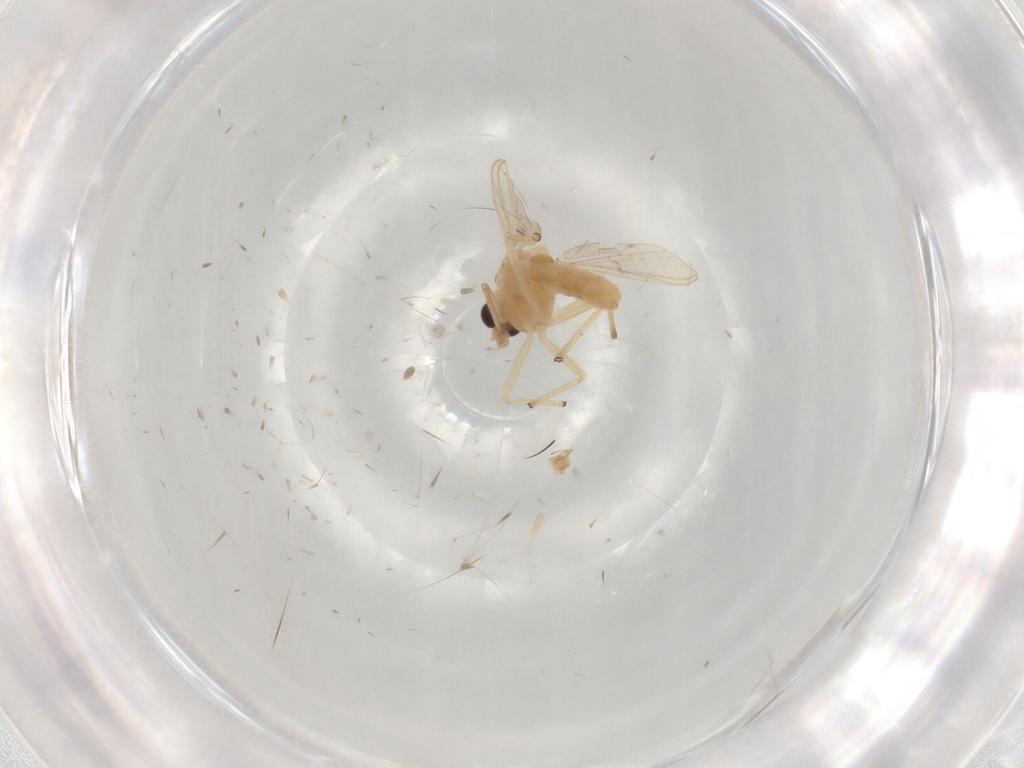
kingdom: Animalia
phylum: Arthropoda
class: Insecta
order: Diptera
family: Chironomidae
